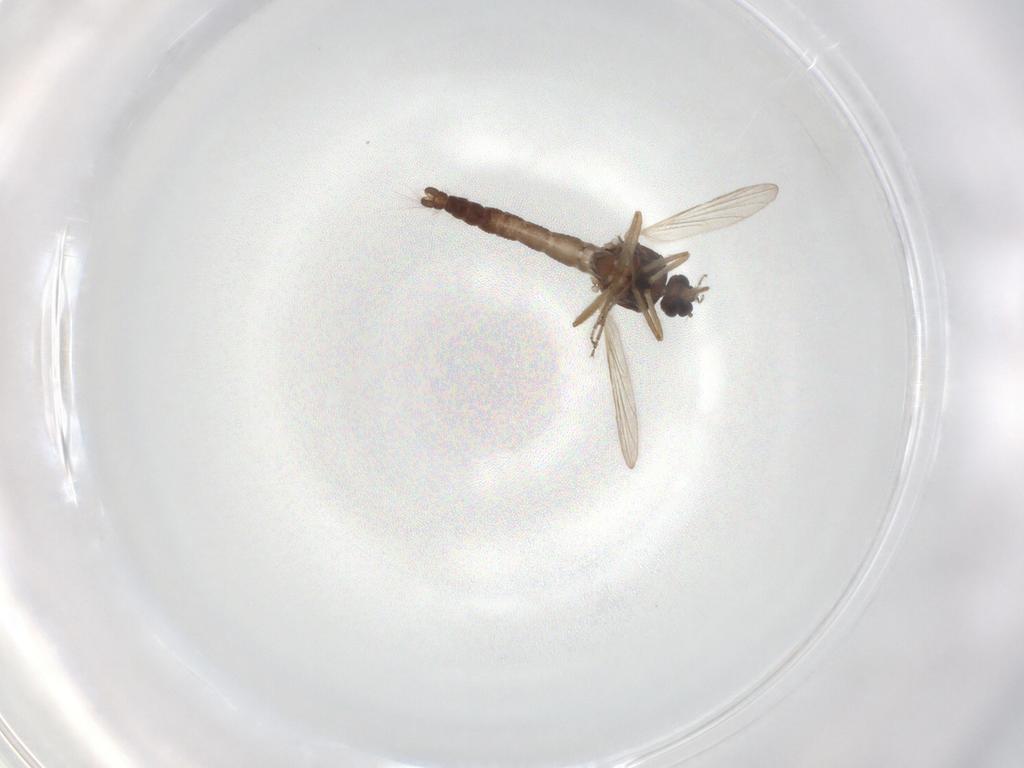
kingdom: Animalia
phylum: Arthropoda
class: Insecta
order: Diptera
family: Ceratopogonidae
